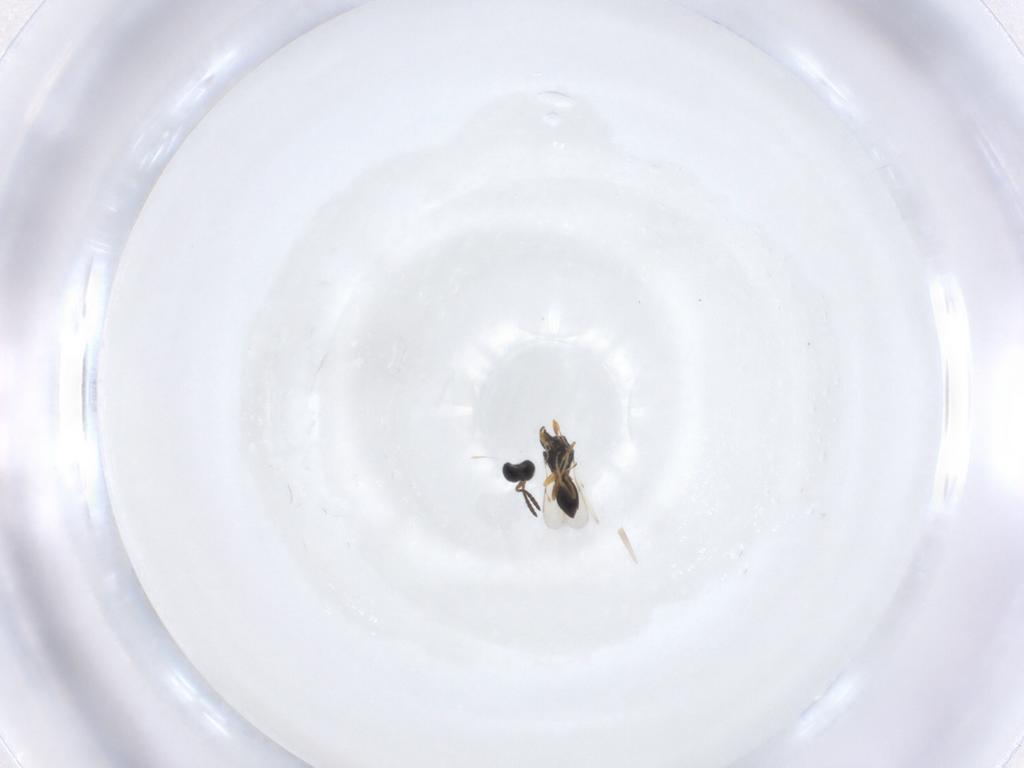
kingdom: Animalia
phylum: Arthropoda
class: Insecta
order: Hymenoptera
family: Scelionidae
